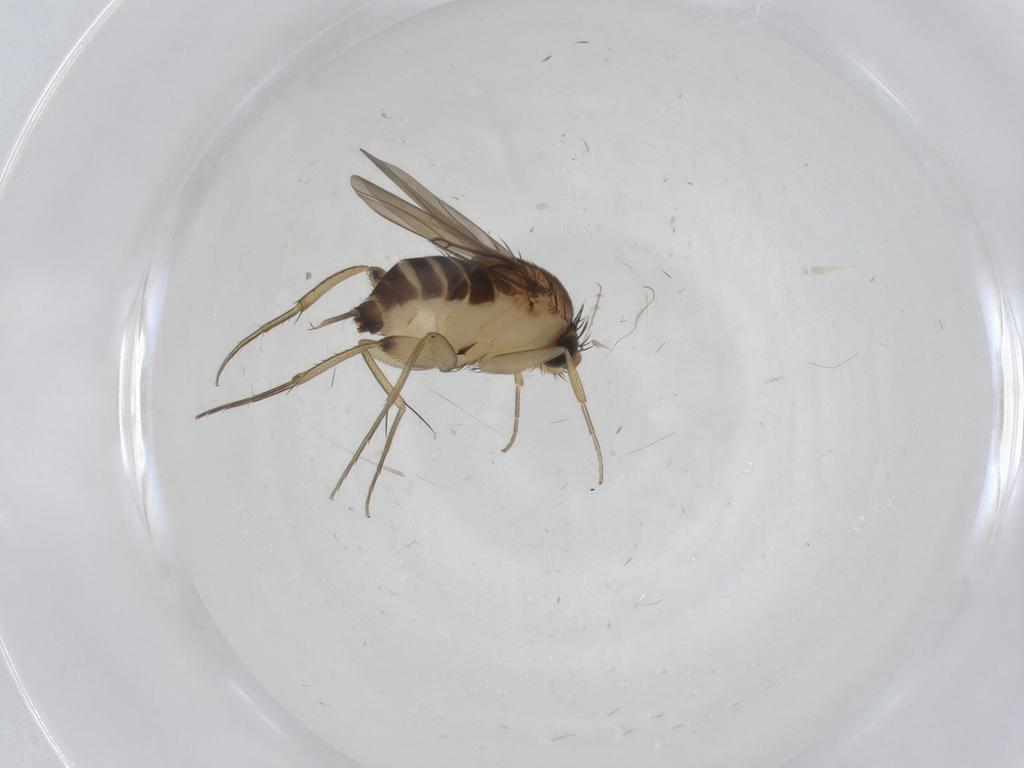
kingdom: Animalia
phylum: Arthropoda
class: Insecta
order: Diptera
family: Phoridae
